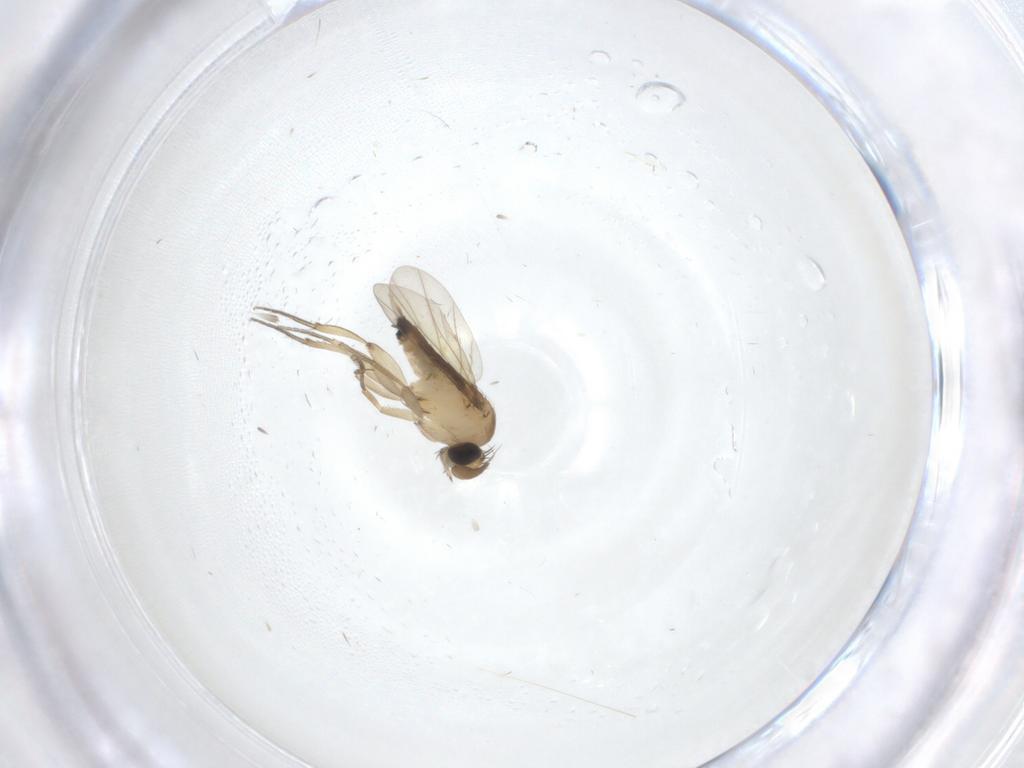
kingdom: Animalia
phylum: Arthropoda
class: Insecta
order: Diptera
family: Phoridae
